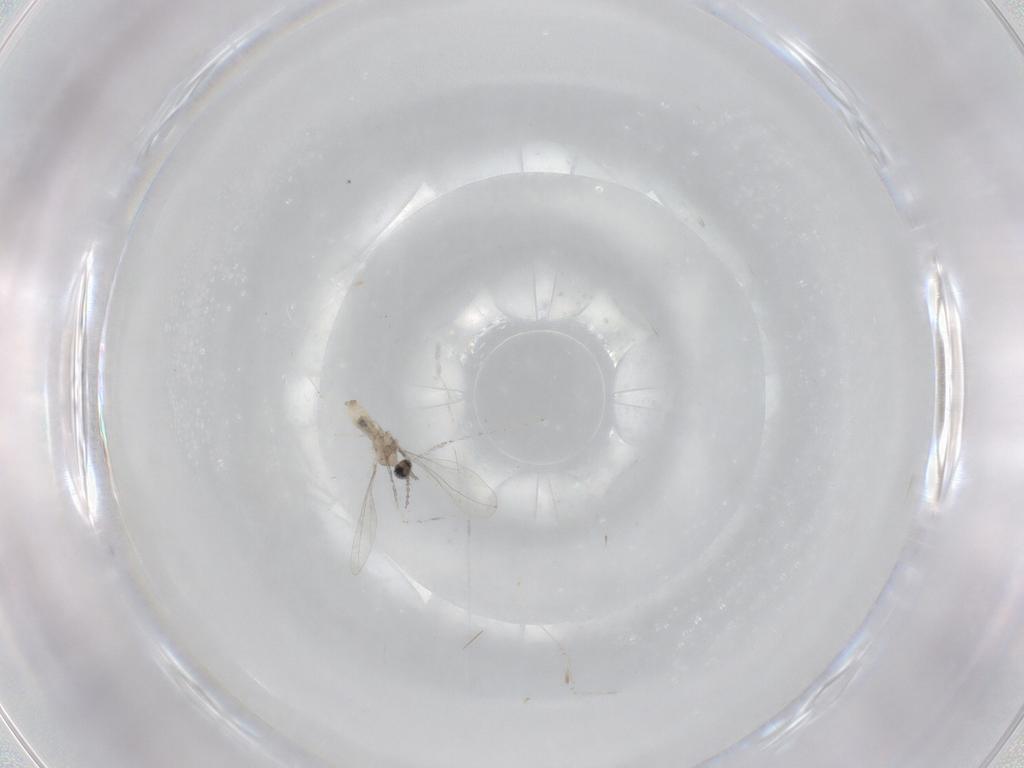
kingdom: Animalia
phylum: Arthropoda
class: Insecta
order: Diptera
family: Cecidomyiidae
